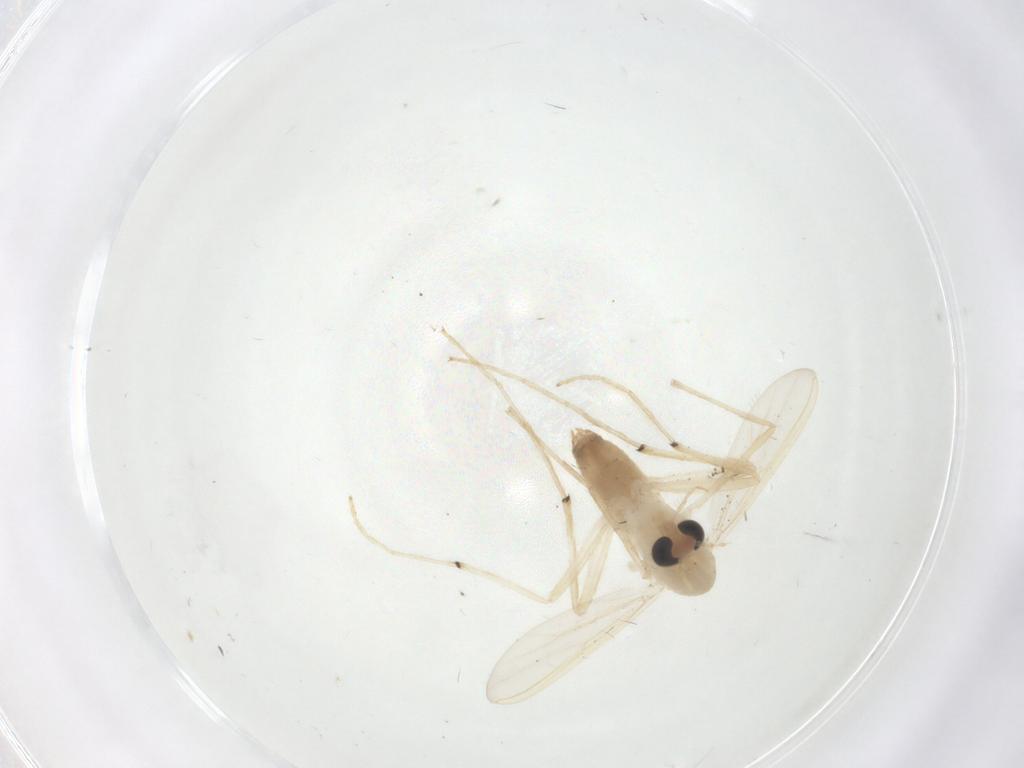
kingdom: Animalia
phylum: Arthropoda
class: Insecta
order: Diptera
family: Chironomidae
